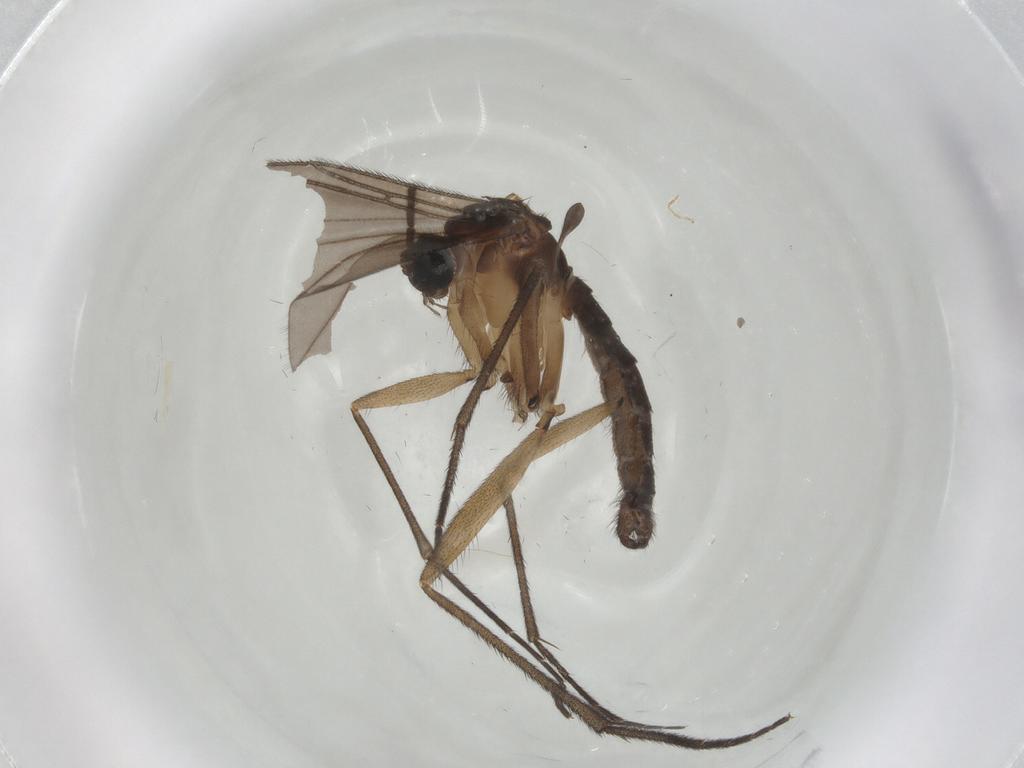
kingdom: Animalia
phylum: Arthropoda
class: Insecta
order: Diptera
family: Sciaridae
